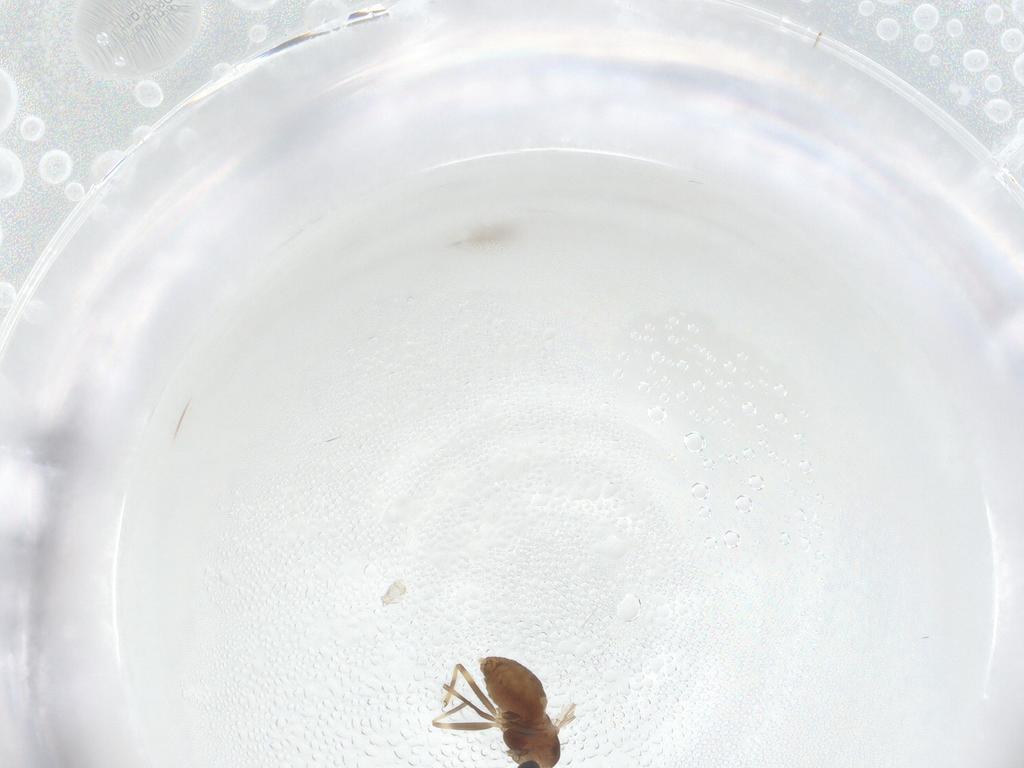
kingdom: Animalia
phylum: Arthropoda
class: Insecta
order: Diptera
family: Chironomidae
